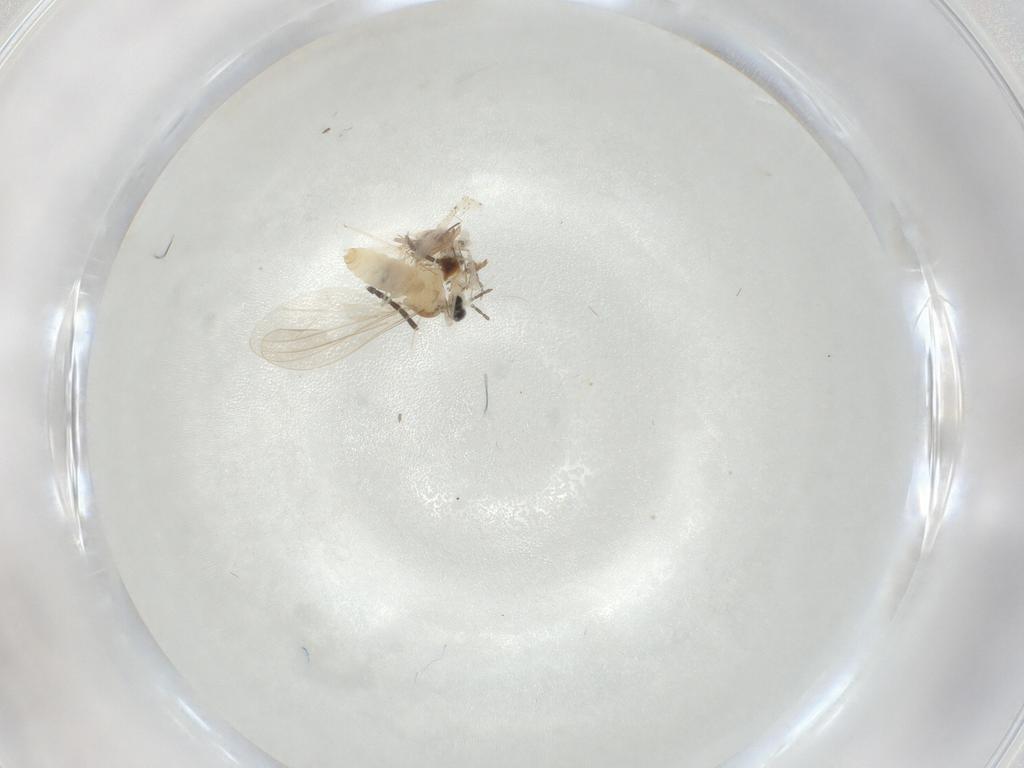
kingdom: Animalia
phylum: Arthropoda
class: Insecta
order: Diptera
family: Cecidomyiidae
